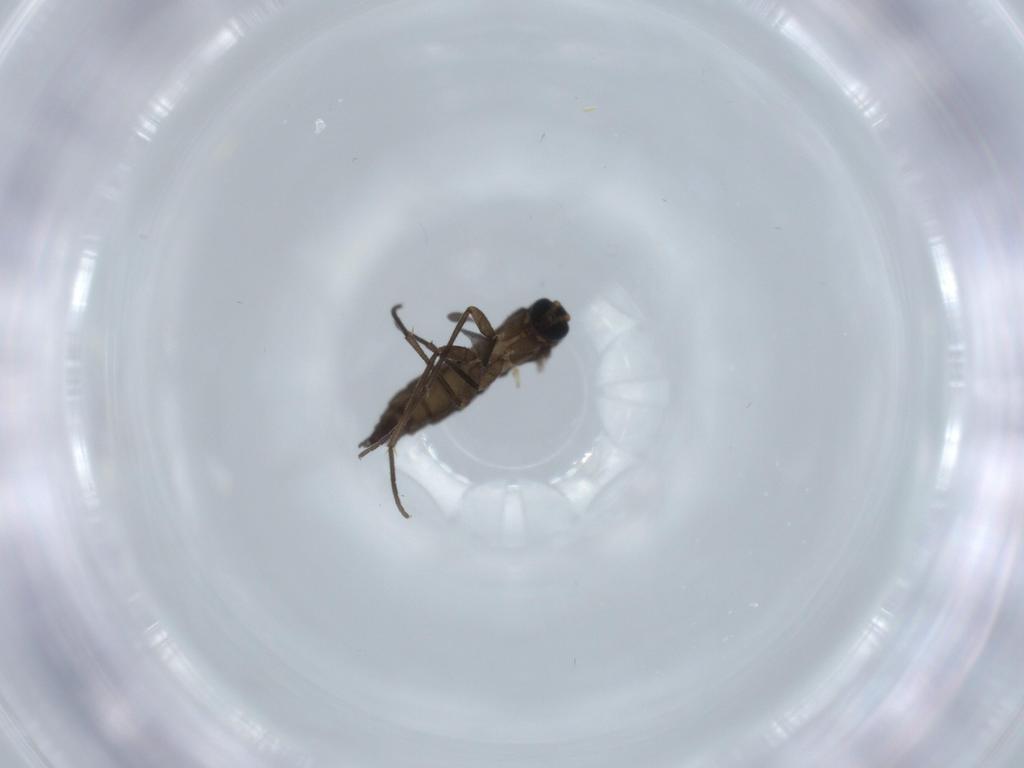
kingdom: Animalia
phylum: Arthropoda
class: Insecta
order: Diptera
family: Sciaridae
